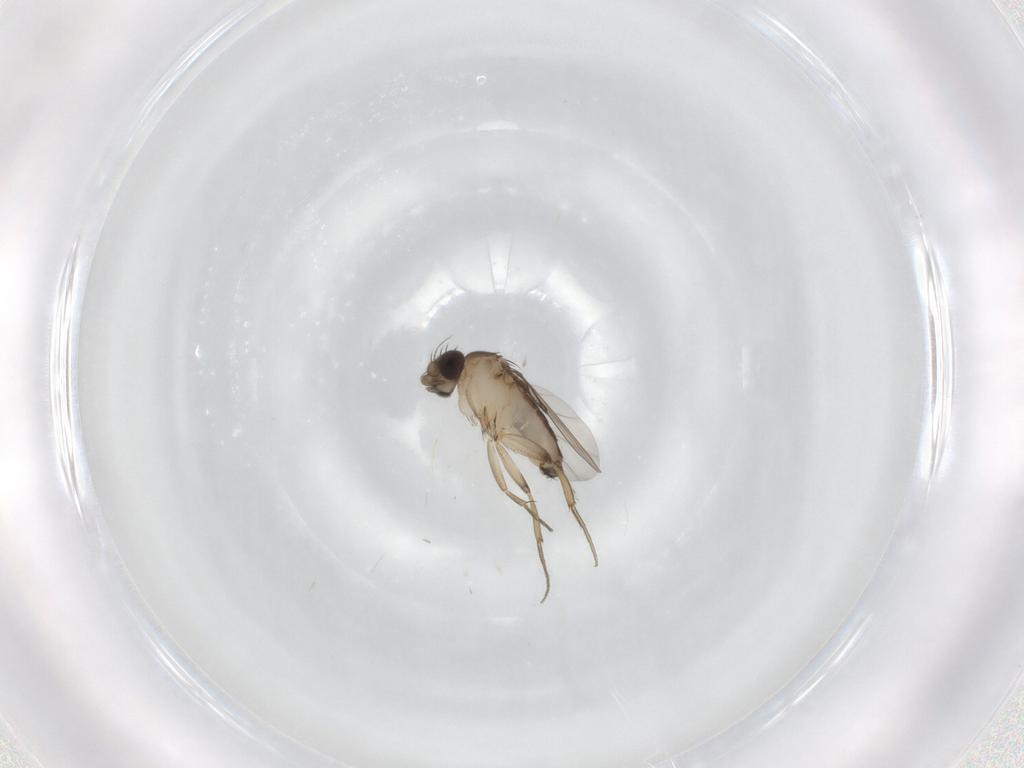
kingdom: Animalia
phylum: Arthropoda
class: Insecta
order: Diptera
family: Phoridae
